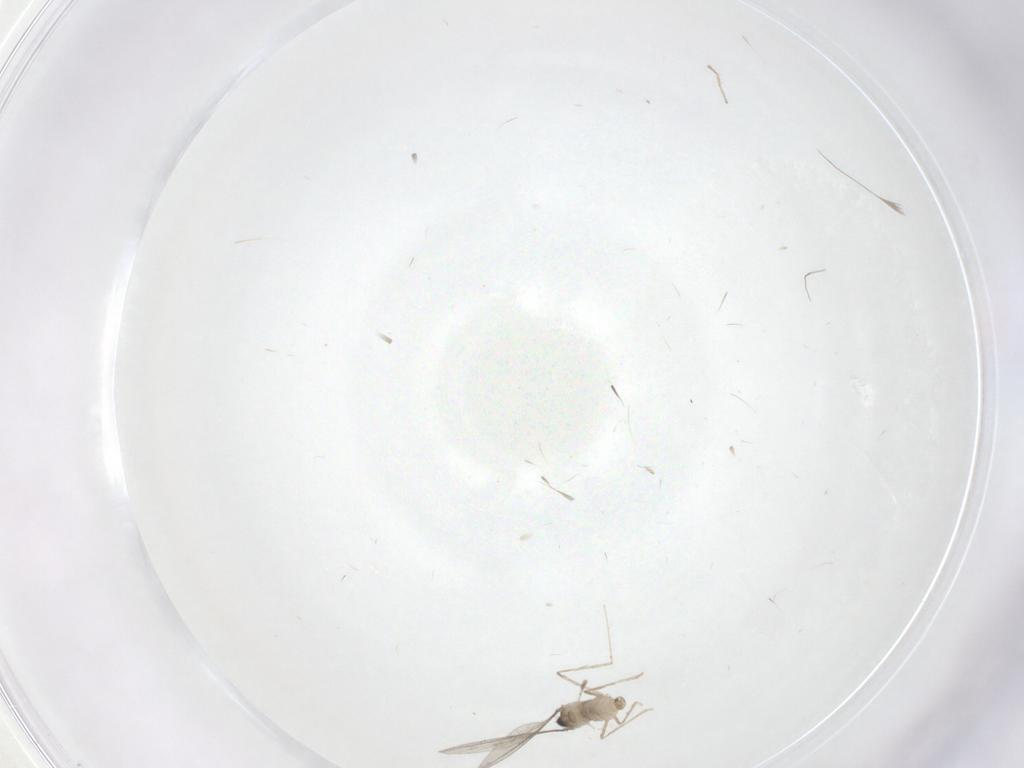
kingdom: Animalia
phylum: Arthropoda
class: Insecta
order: Diptera
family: Cecidomyiidae
